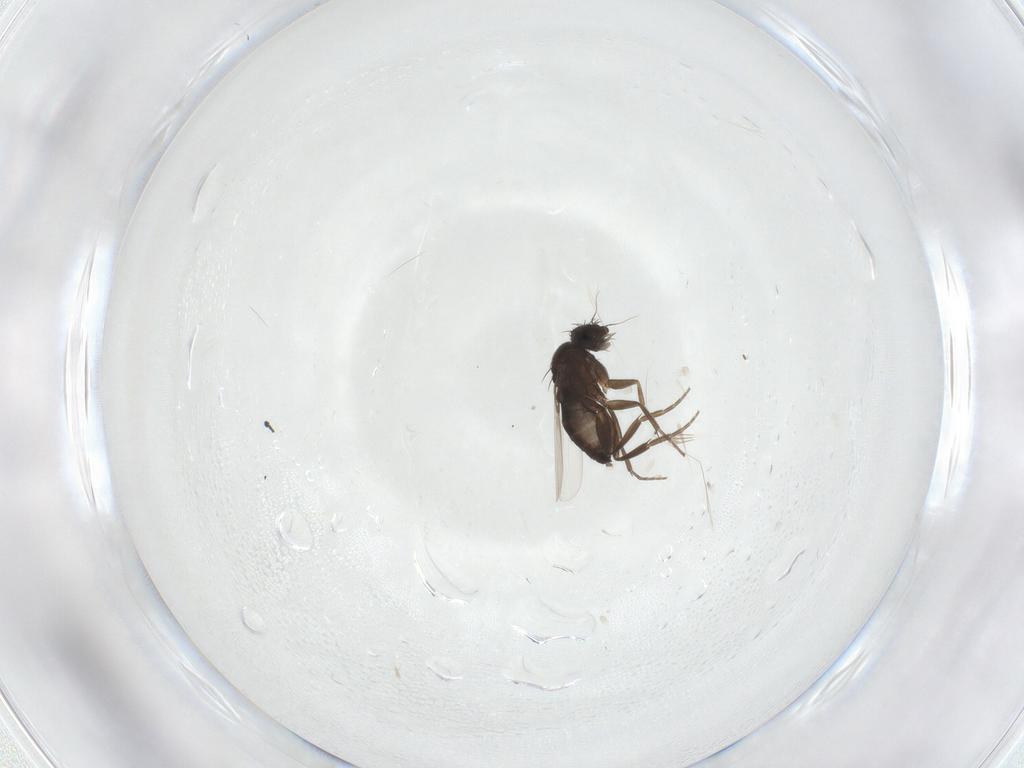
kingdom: Animalia
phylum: Arthropoda
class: Insecta
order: Diptera
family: Phoridae
